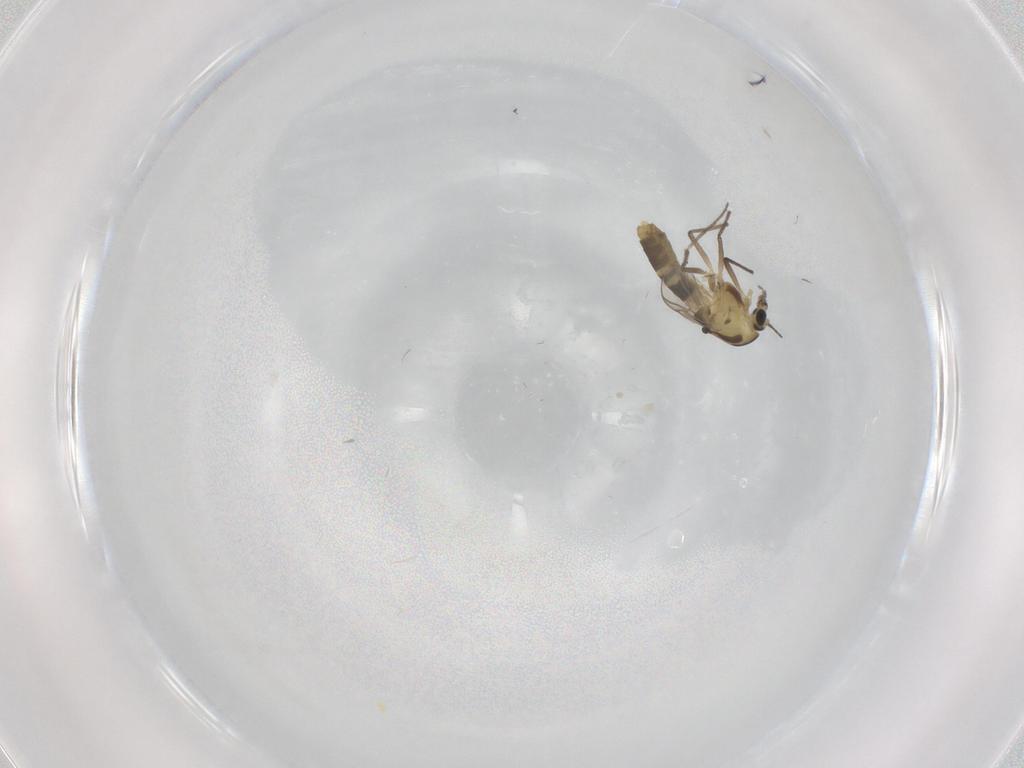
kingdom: Animalia
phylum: Arthropoda
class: Insecta
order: Diptera
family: Chironomidae
